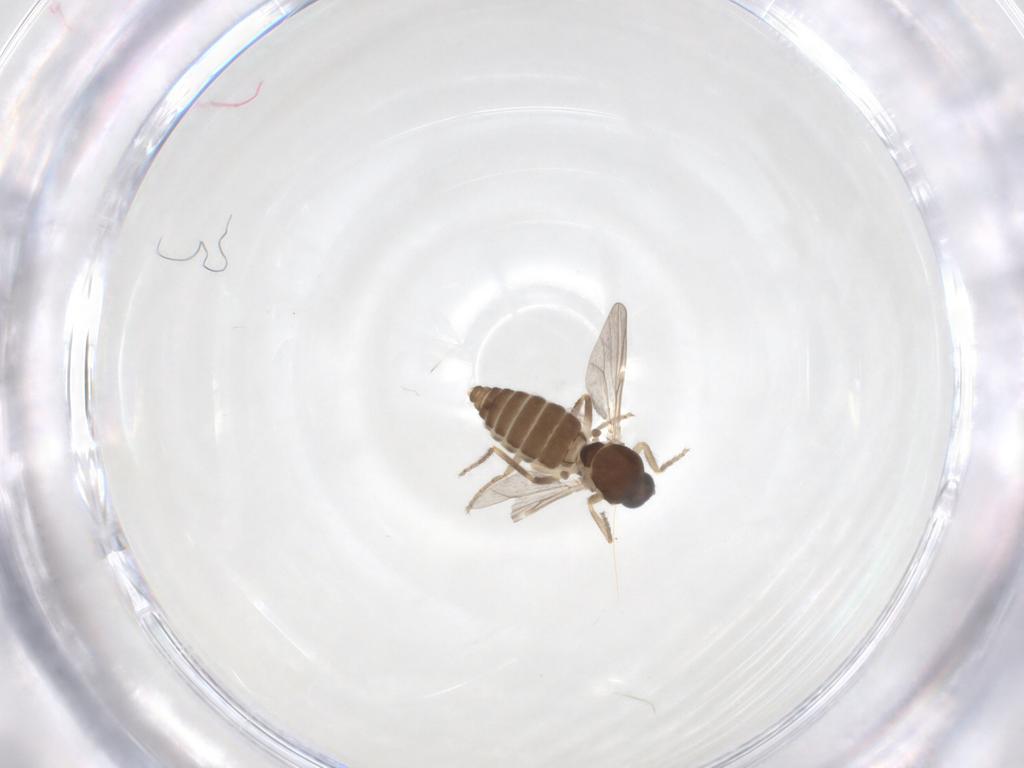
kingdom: Animalia
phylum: Arthropoda
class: Insecta
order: Diptera
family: Ceratopogonidae
